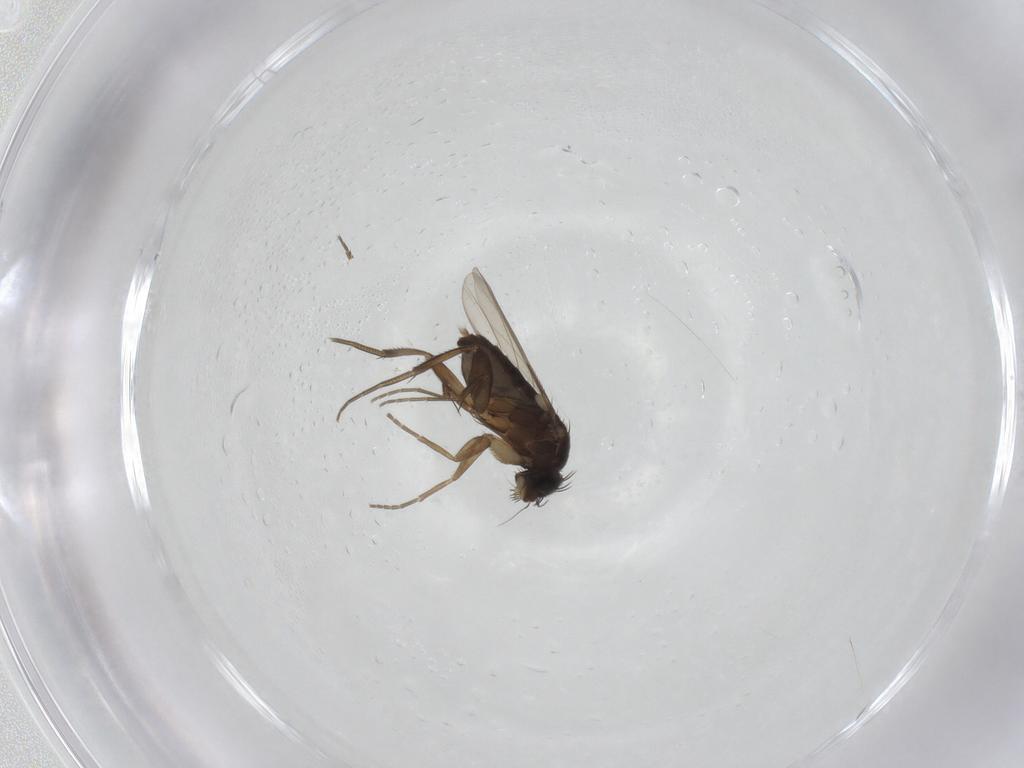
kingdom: Animalia
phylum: Arthropoda
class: Insecta
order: Diptera
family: Phoridae
